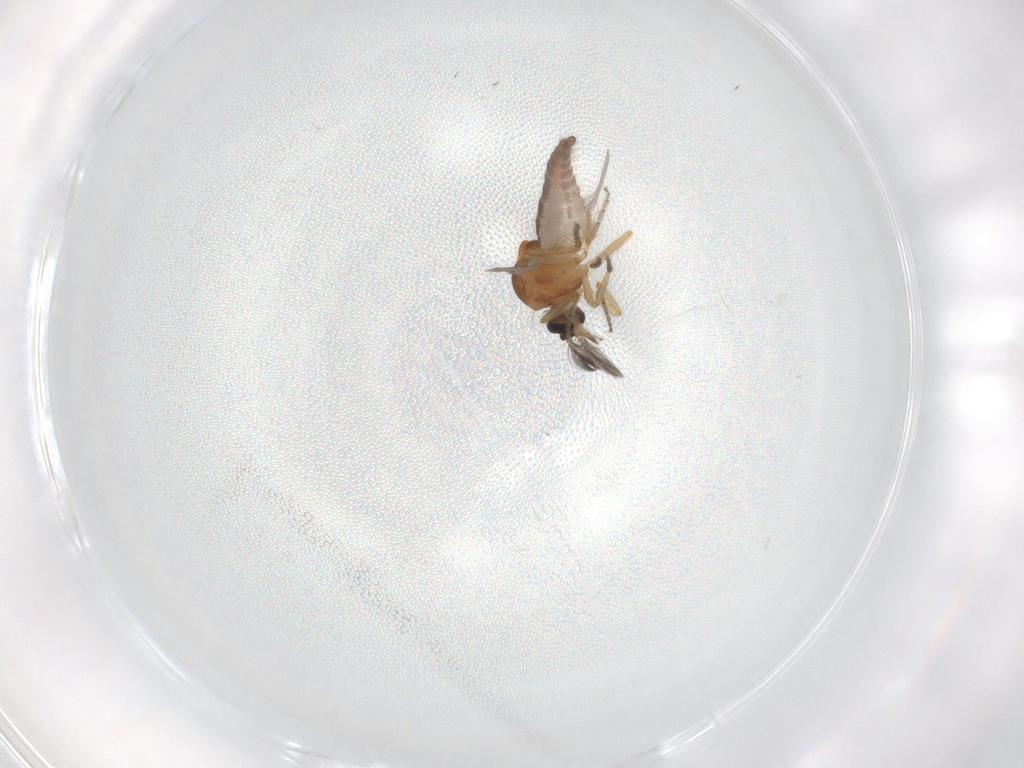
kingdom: Animalia
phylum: Arthropoda
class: Insecta
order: Diptera
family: Ceratopogonidae
